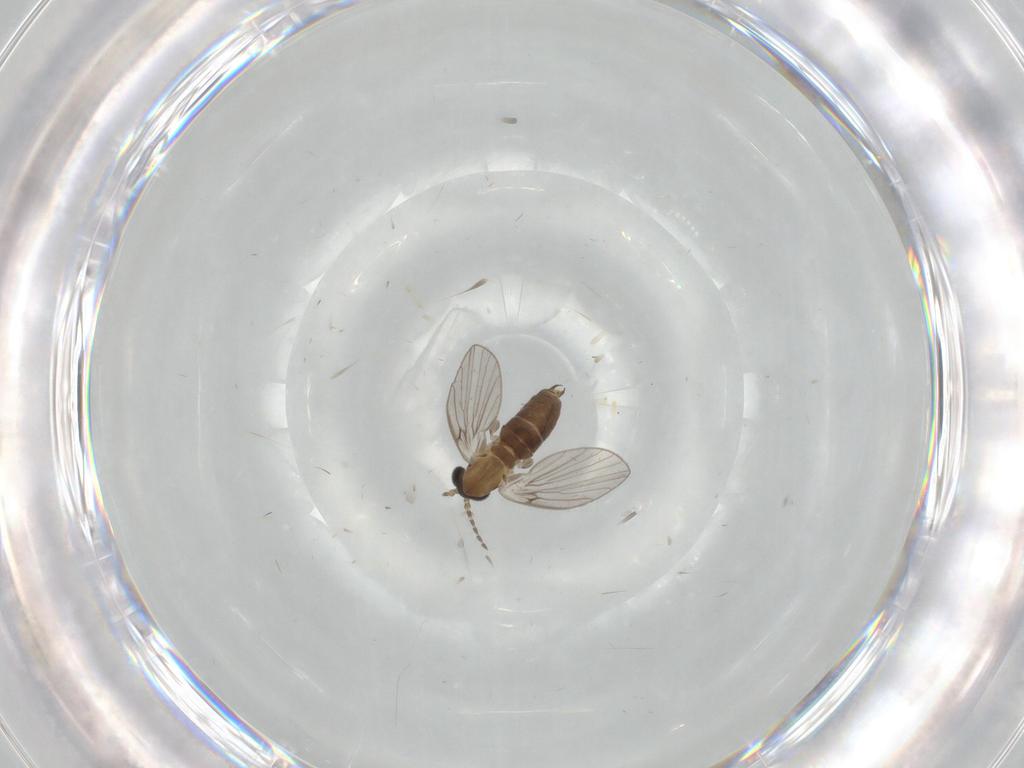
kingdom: Animalia
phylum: Arthropoda
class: Insecta
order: Diptera
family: Psychodidae
